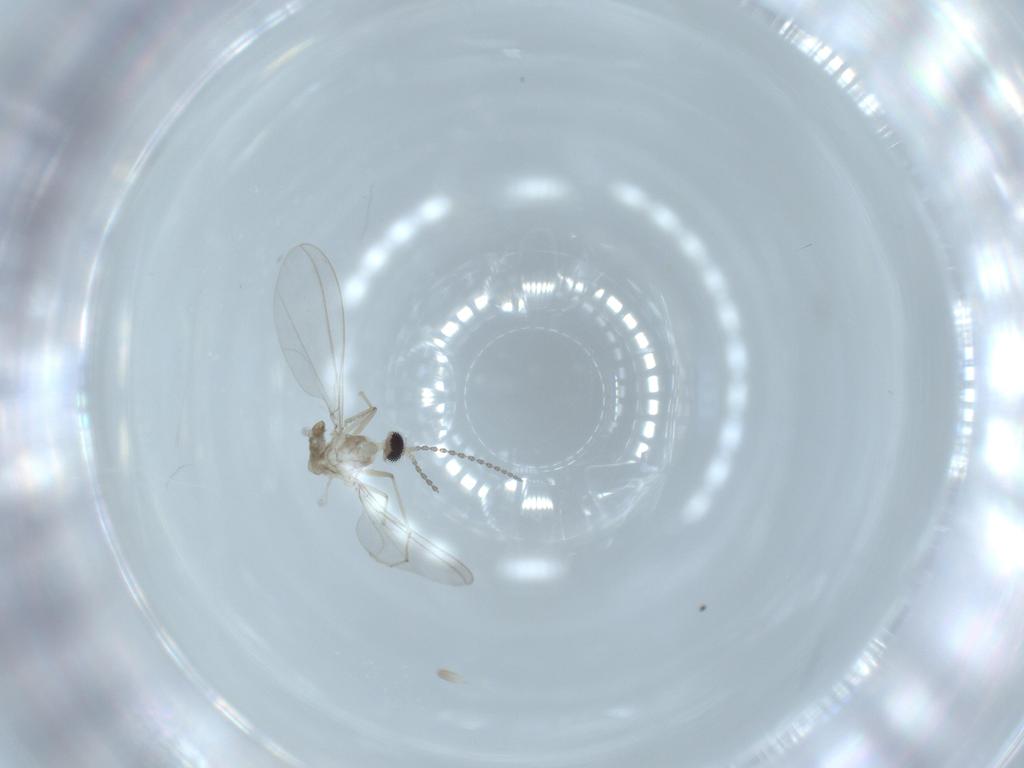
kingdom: Animalia
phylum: Arthropoda
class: Insecta
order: Diptera
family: Cecidomyiidae
